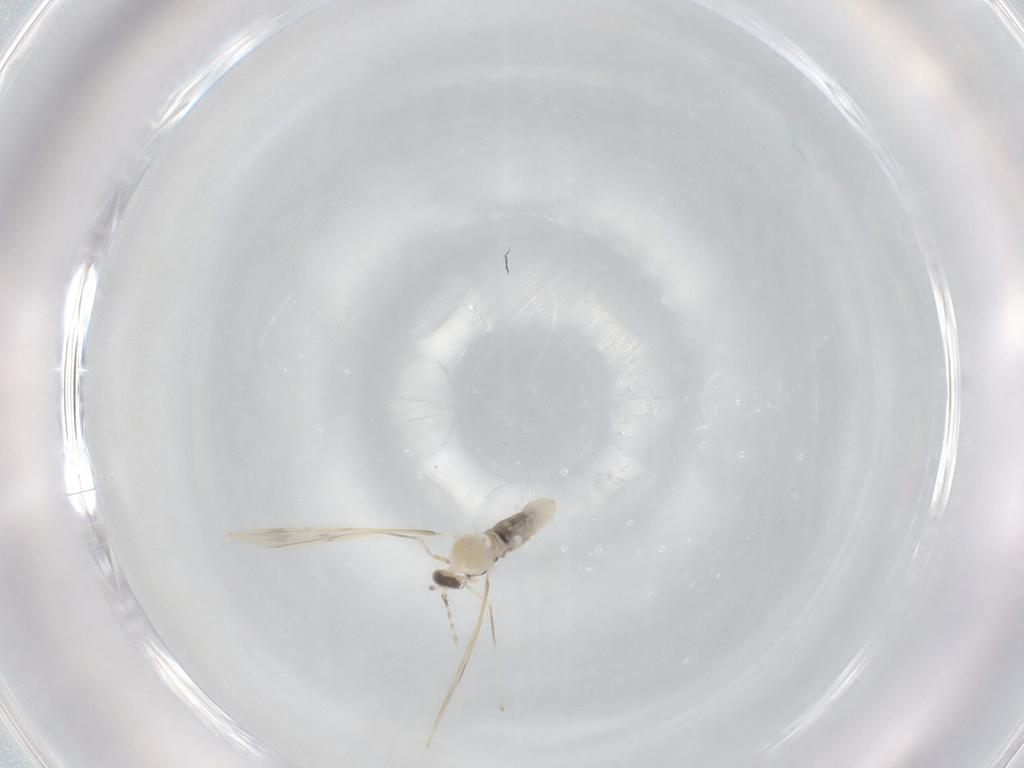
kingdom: Animalia
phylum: Arthropoda
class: Insecta
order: Diptera
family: Cecidomyiidae
